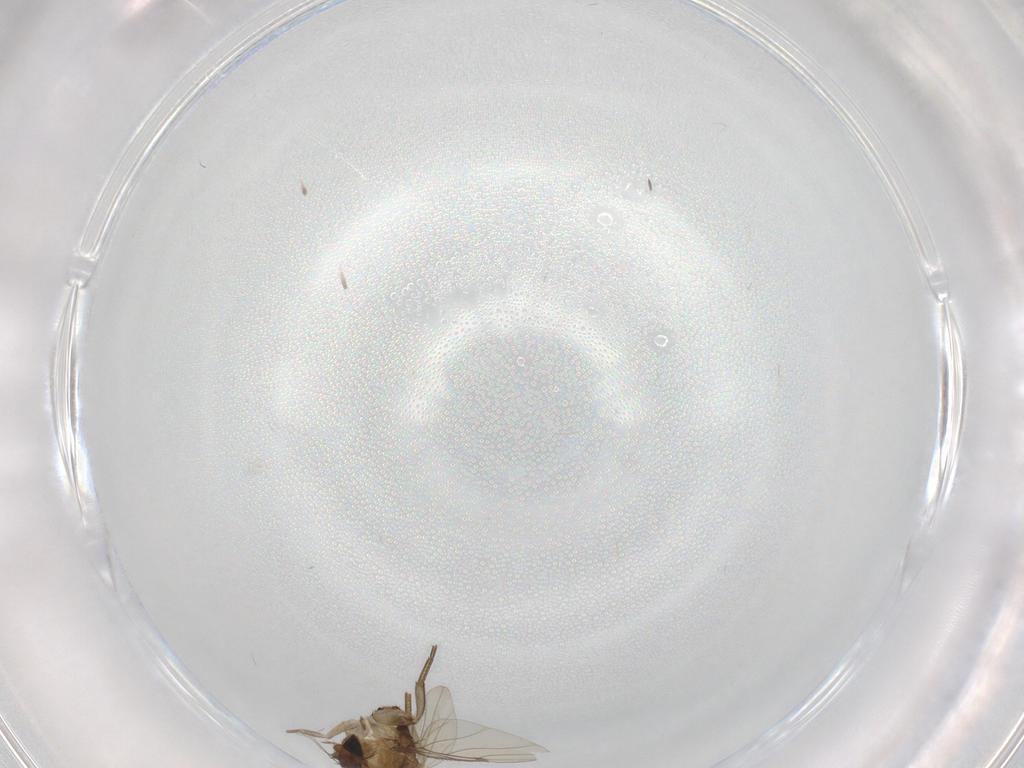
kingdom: Animalia
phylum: Arthropoda
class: Insecta
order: Diptera
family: Phoridae
